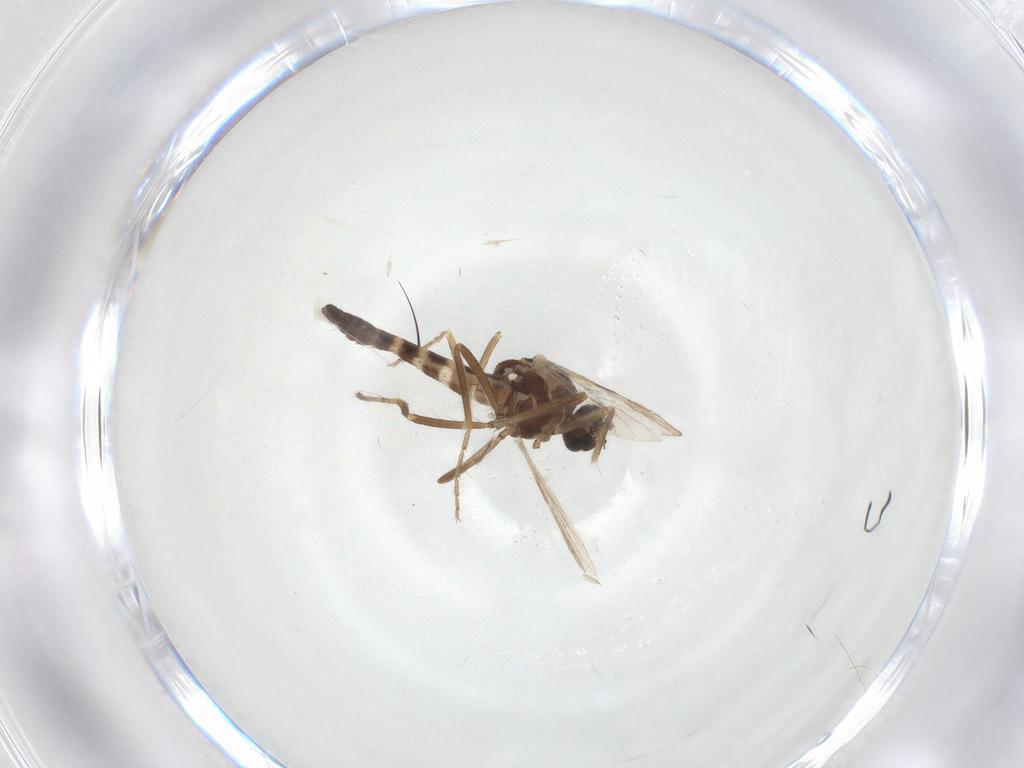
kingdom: Animalia
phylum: Arthropoda
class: Insecta
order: Diptera
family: Ceratopogonidae
